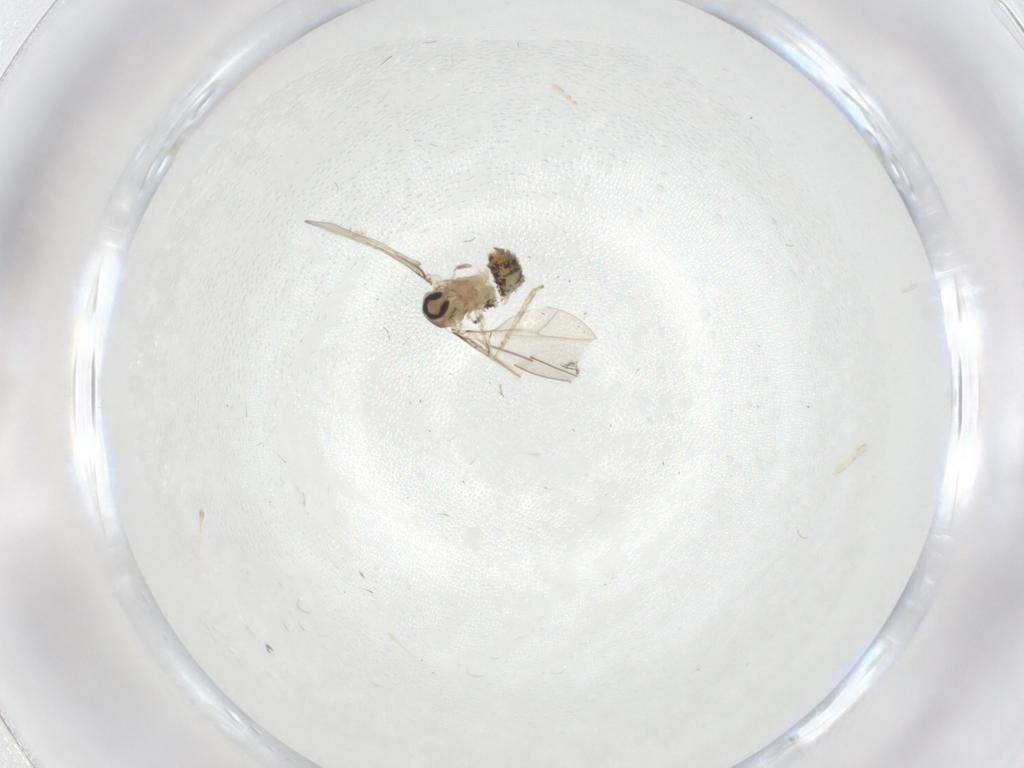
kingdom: Animalia
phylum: Arthropoda
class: Insecta
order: Diptera
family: Cecidomyiidae
